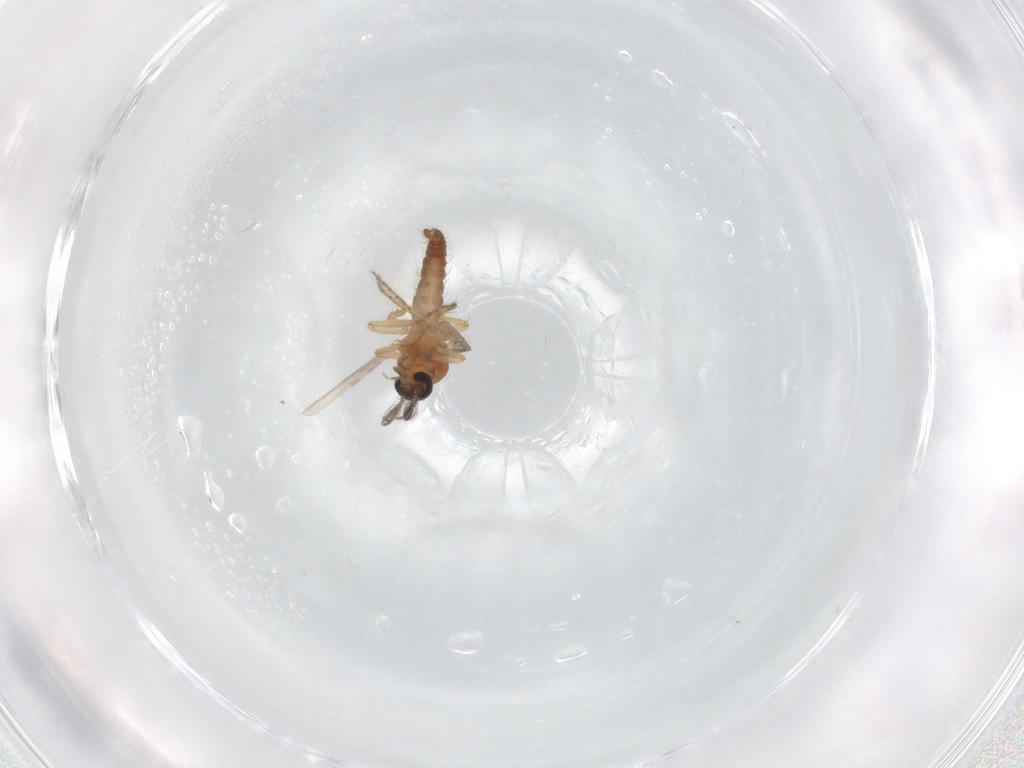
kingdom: Animalia
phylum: Arthropoda
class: Insecta
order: Diptera
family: Ceratopogonidae
